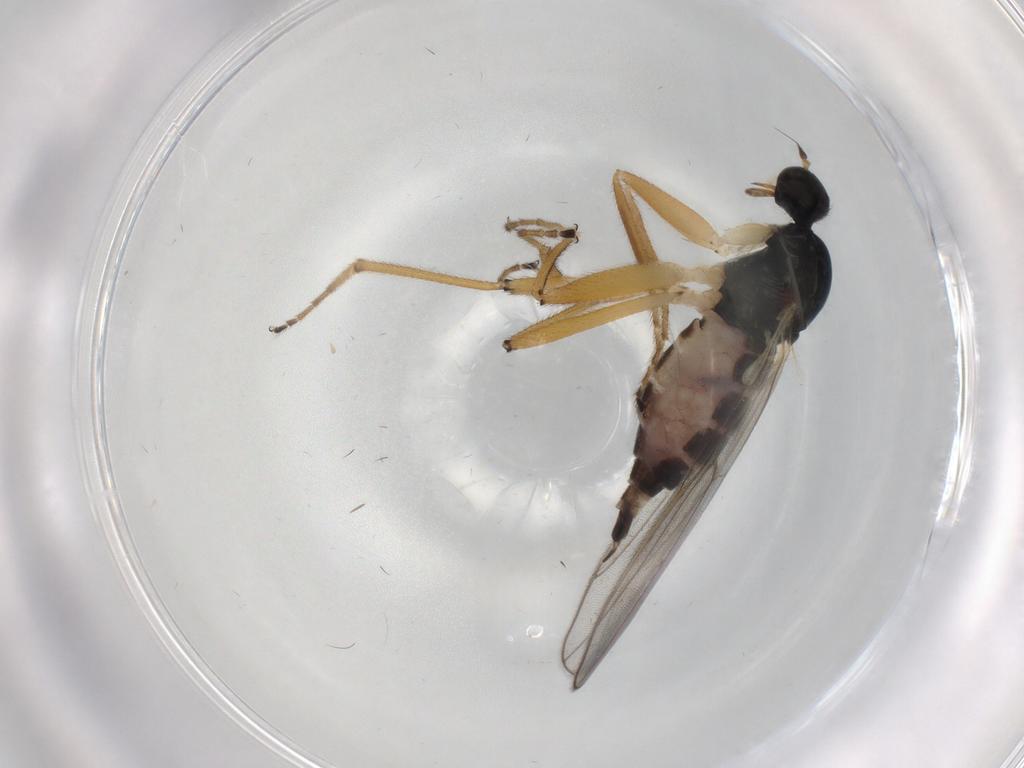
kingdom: Animalia
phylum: Arthropoda
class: Insecta
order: Diptera
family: Hybotidae
